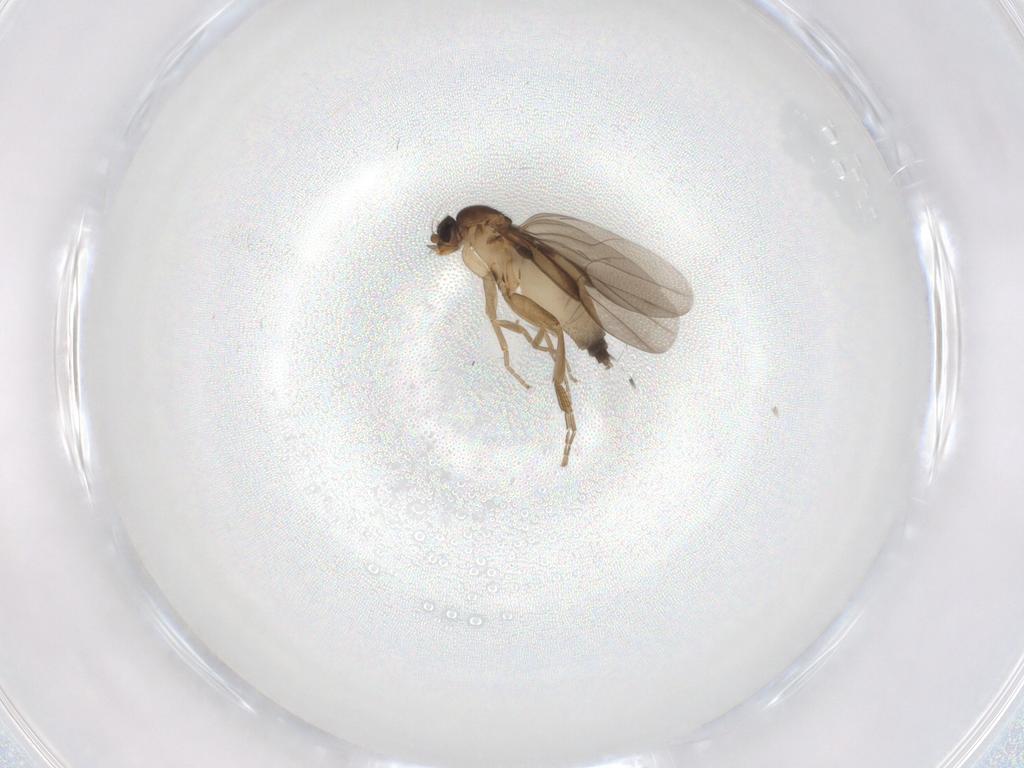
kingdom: Animalia
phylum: Arthropoda
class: Insecta
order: Diptera
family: Phoridae
